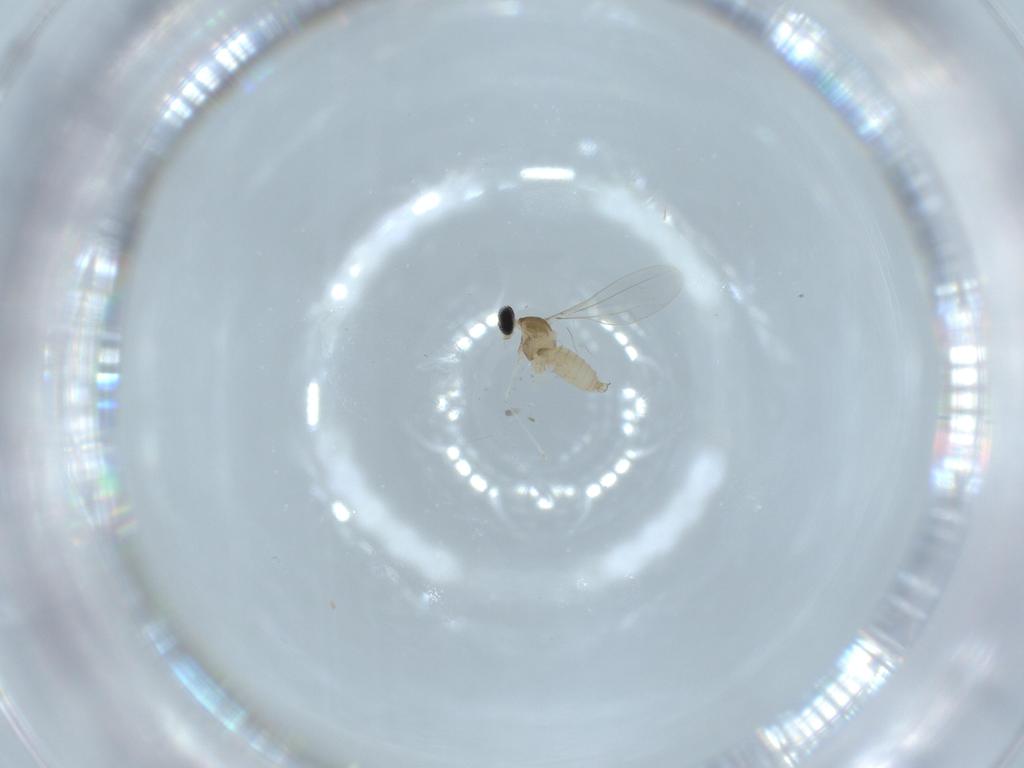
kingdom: Animalia
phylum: Arthropoda
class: Insecta
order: Diptera
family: Cecidomyiidae
